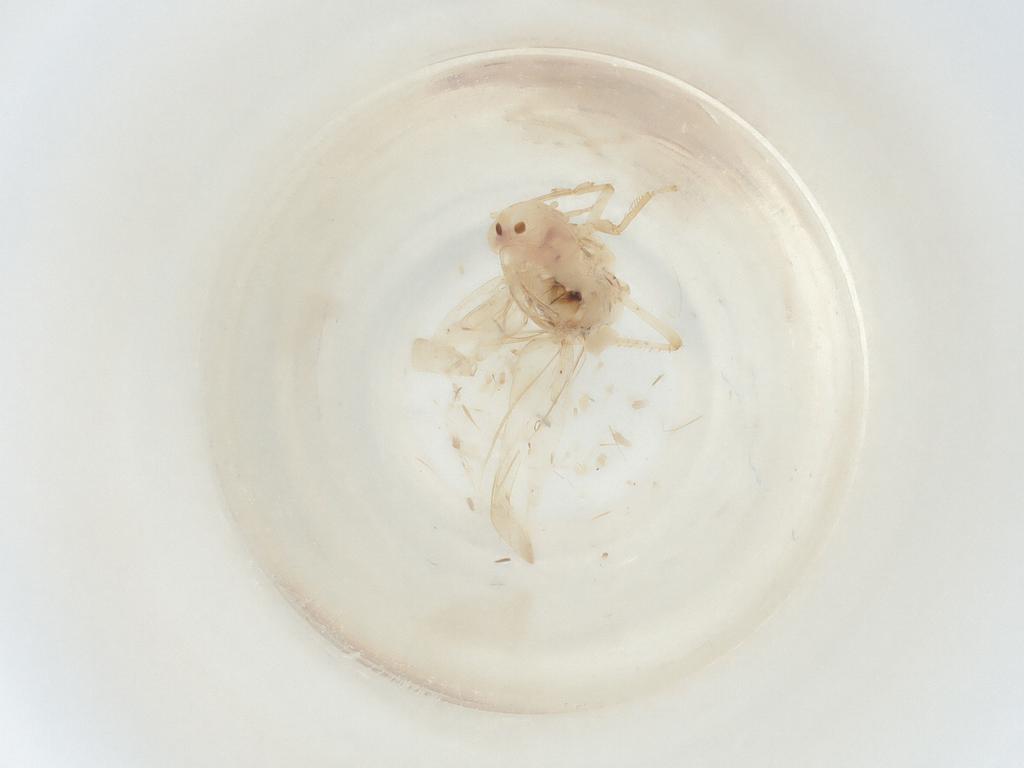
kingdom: Animalia
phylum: Arthropoda
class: Insecta
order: Hemiptera
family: Cicadellidae
